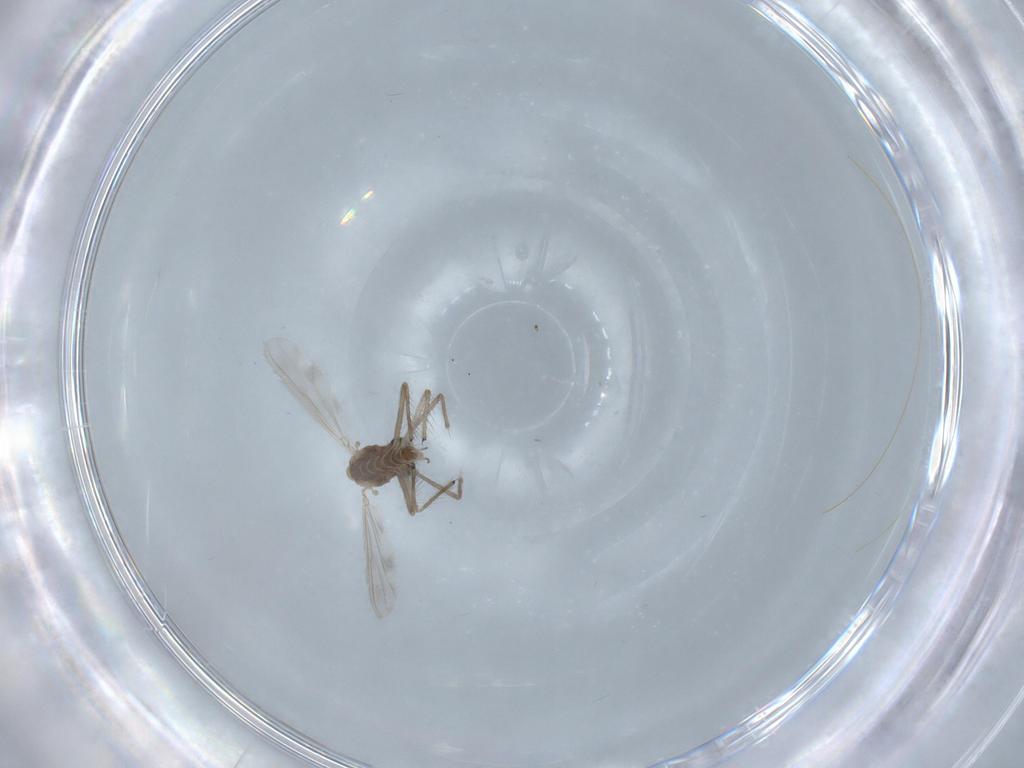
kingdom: Animalia
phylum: Arthropoda
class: Insecta
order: Diptera
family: Chironomidae
